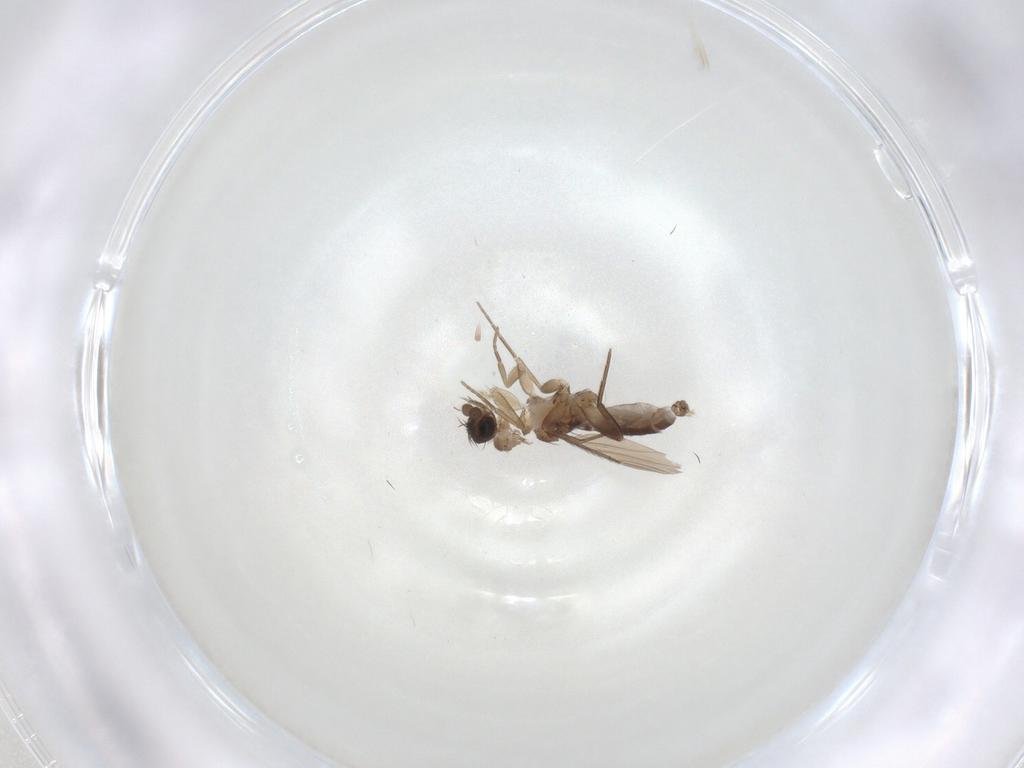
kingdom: Animalia
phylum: Arthropoda
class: Insecta
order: Diptera
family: Phoridae
